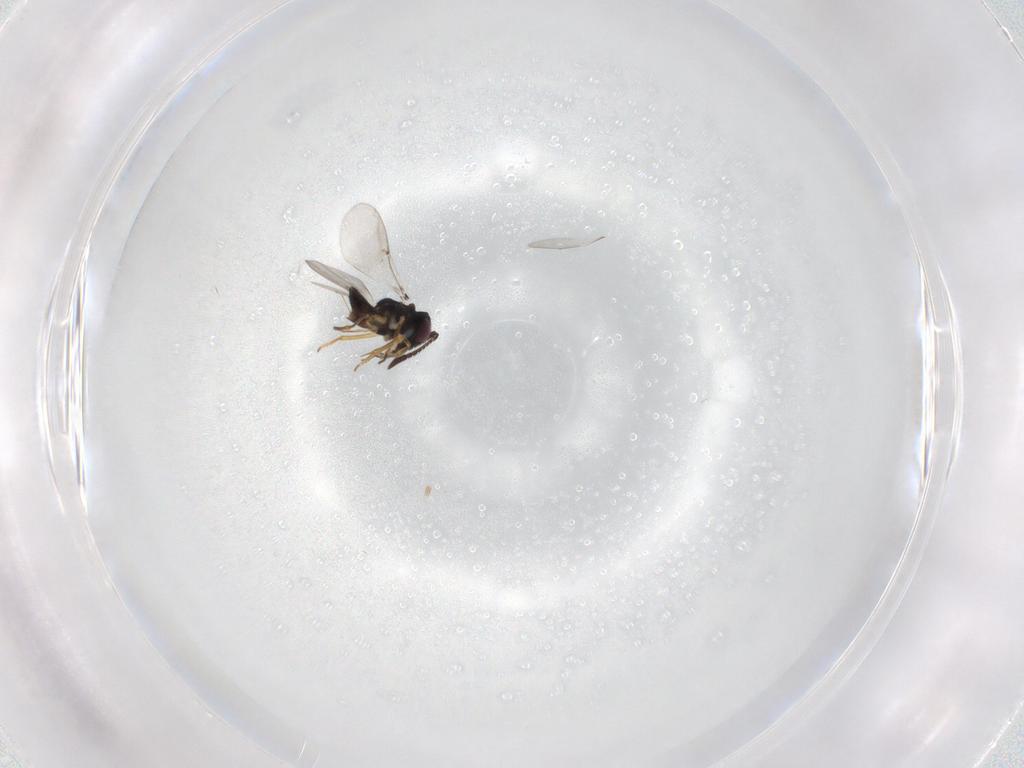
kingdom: Animalia
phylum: Arthropoda
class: Insecta
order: Hymenoptera
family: Encyrtidae
